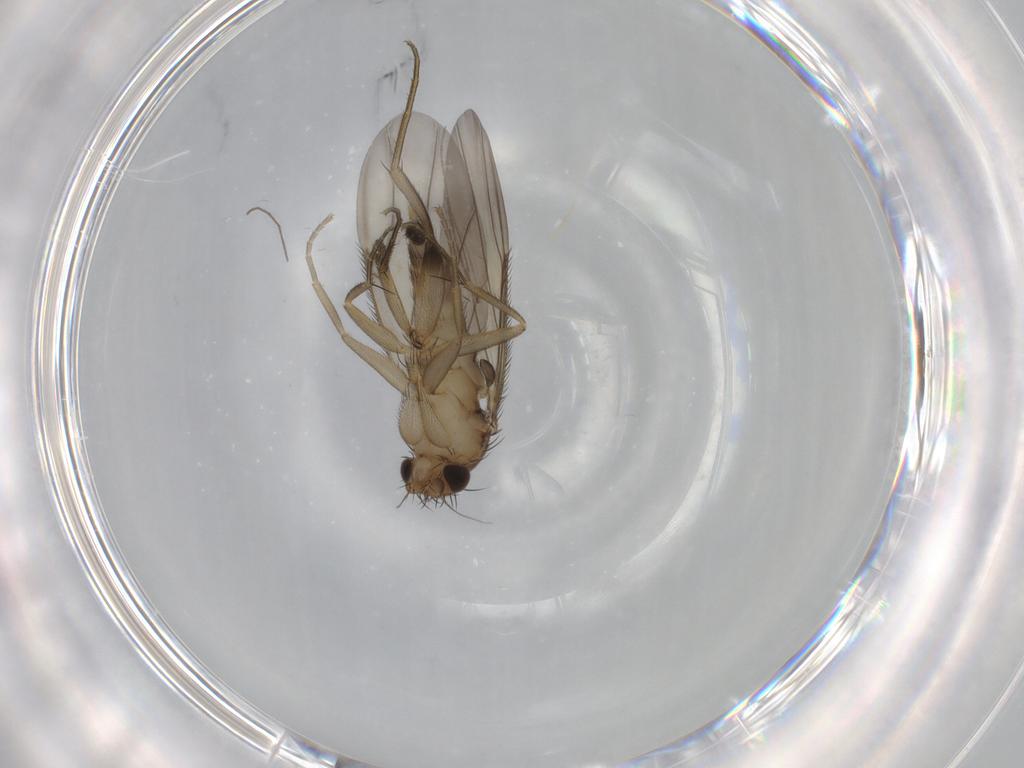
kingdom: Animalia
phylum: Arthropoda
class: Insecta
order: Diptera
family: Phoridae
